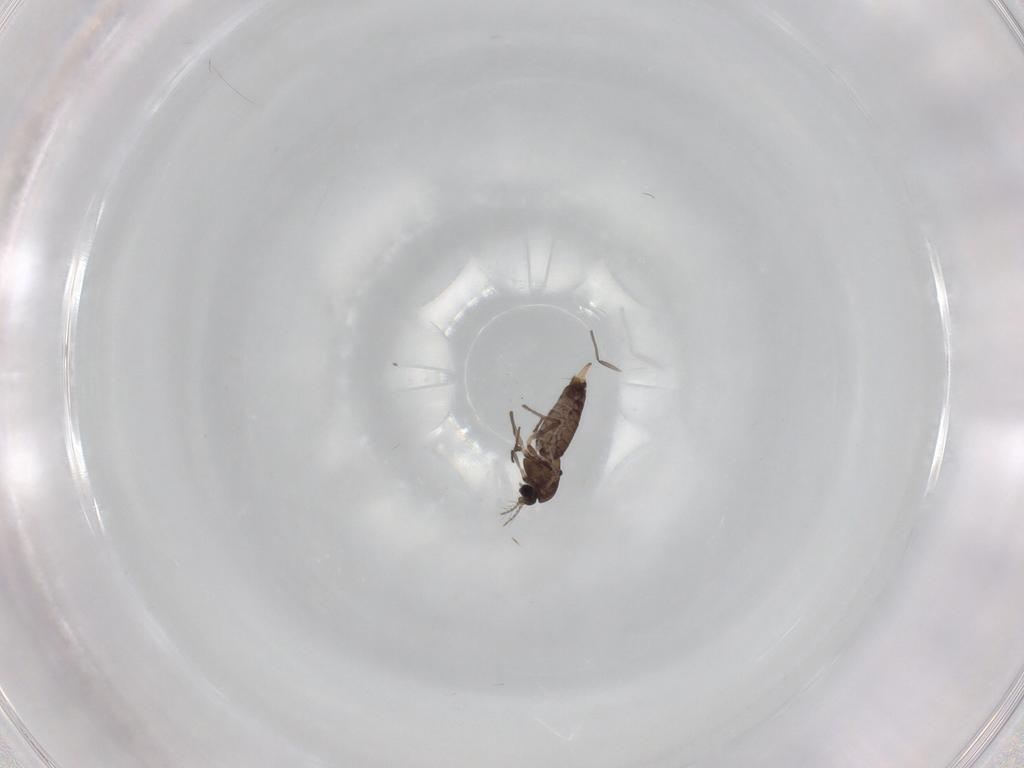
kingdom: Animalia
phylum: Arthropoda
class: Insecta
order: Diptera
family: Chironomidae
